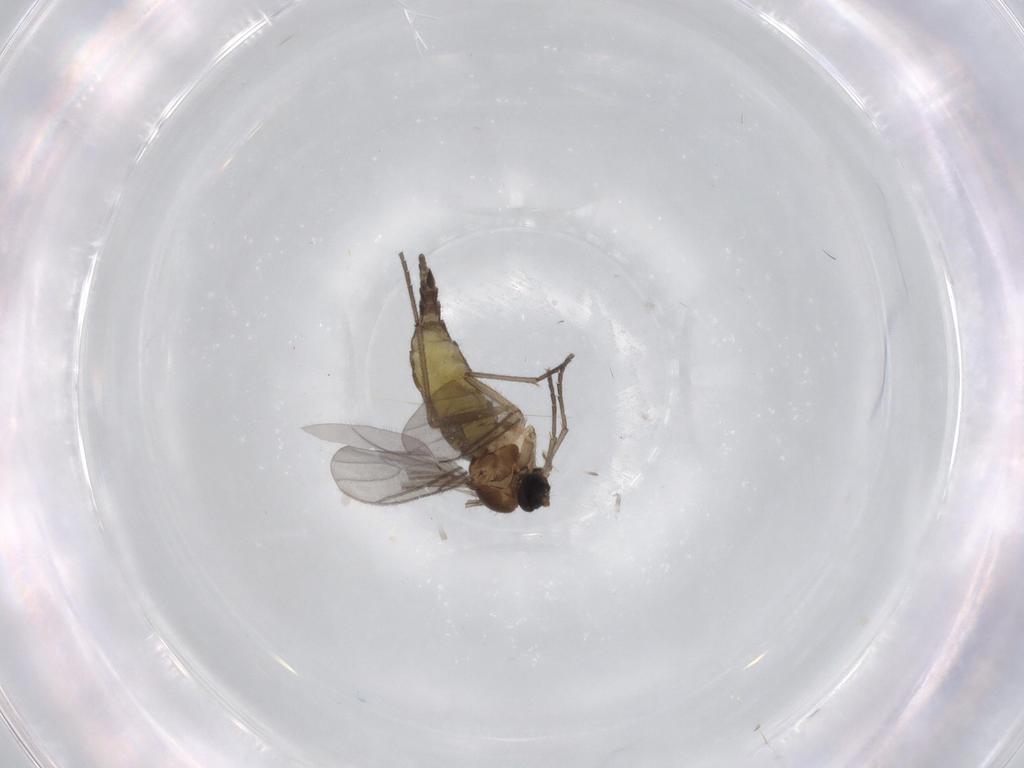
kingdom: Animalia
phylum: Arthropoda
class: Insecta
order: Diptera
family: Sciaridae
